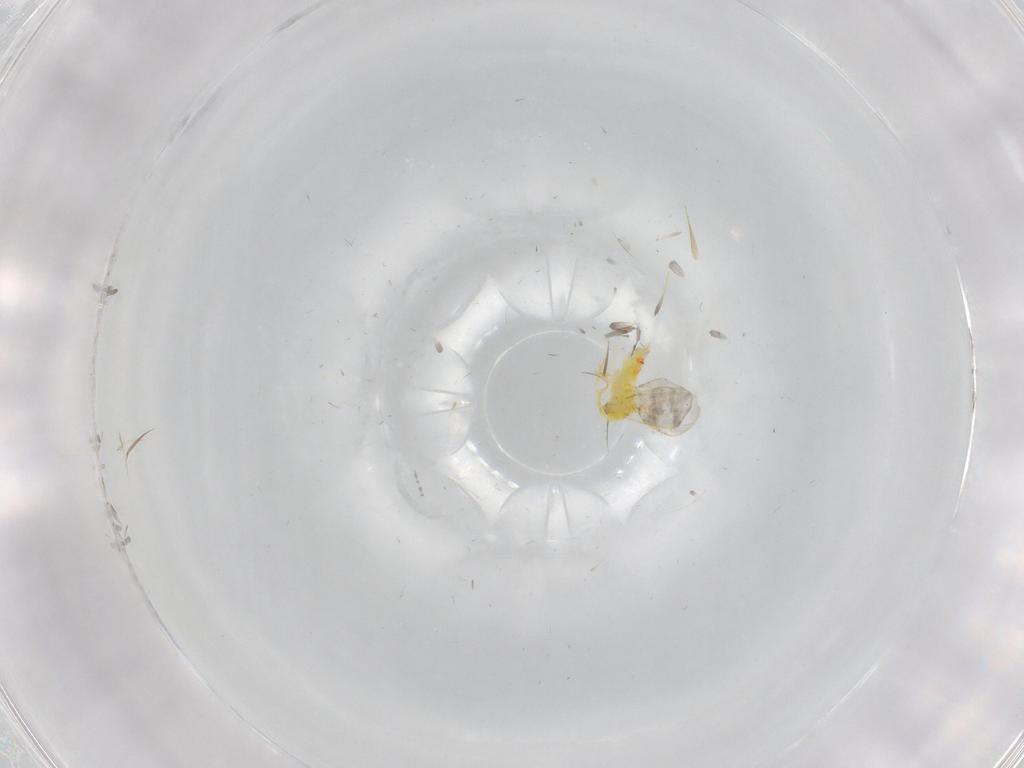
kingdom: Animalia
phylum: Arthropoda
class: Insecta
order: Hemiptera
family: Aleyrodidae
